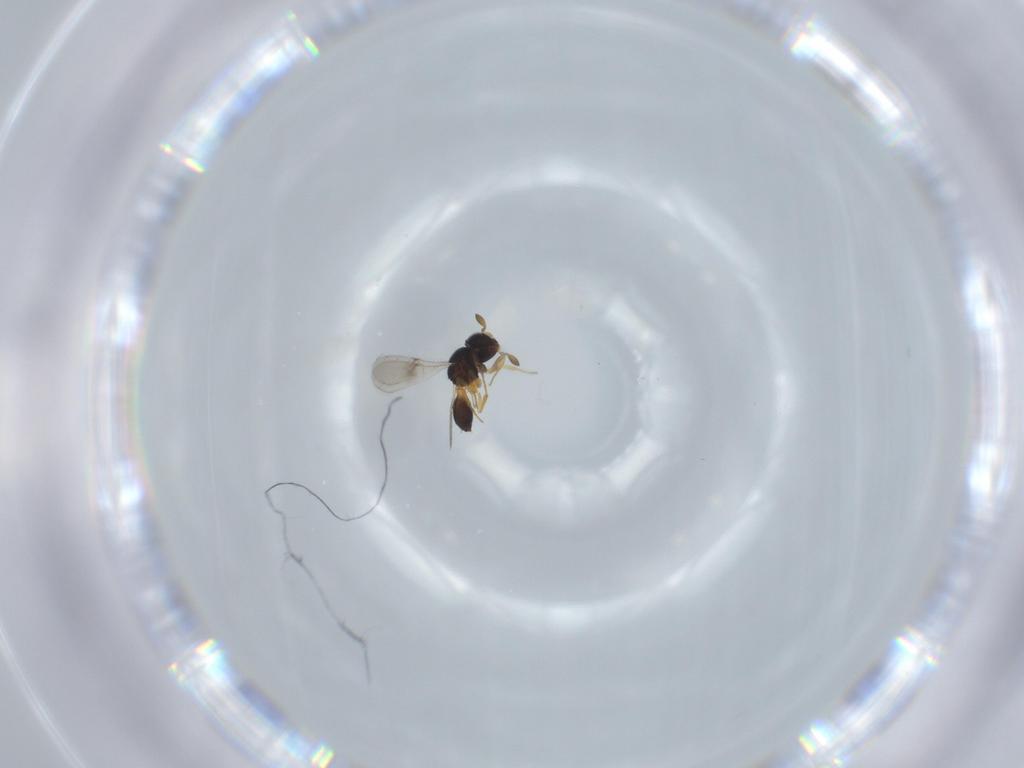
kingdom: Animalia
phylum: Arthropoda
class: Insecta
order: Hymenoptera
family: Scelionidae
